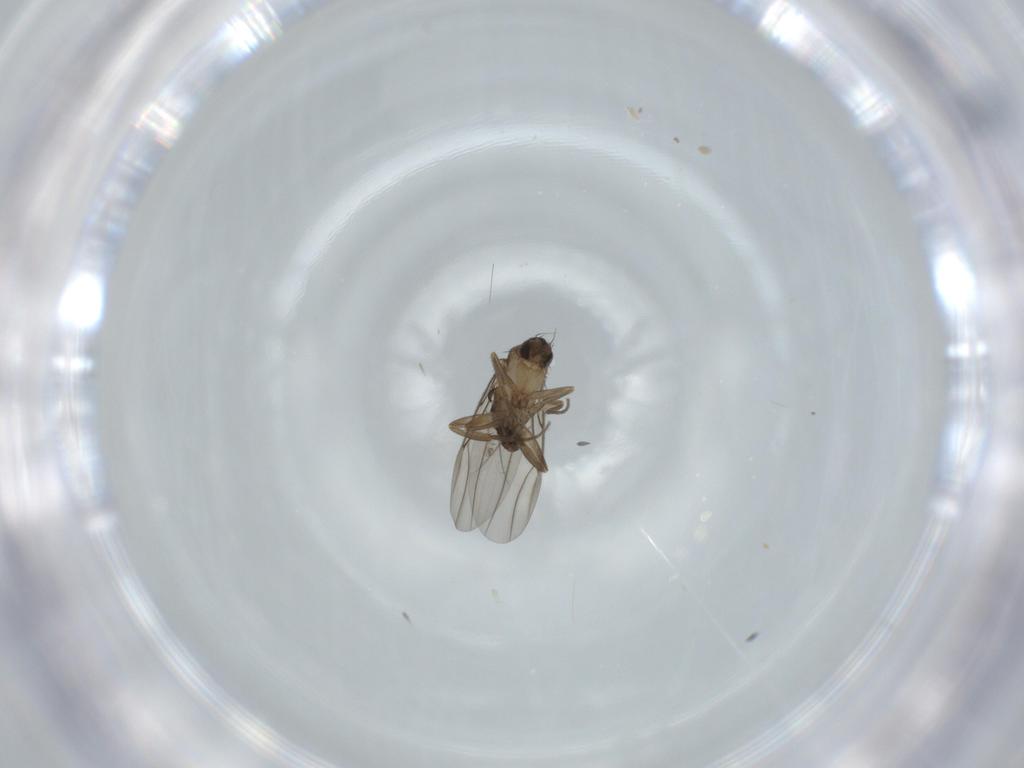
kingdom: Animalia
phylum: Arthropoda
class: Insecta
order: Diptera
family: Phoridae
